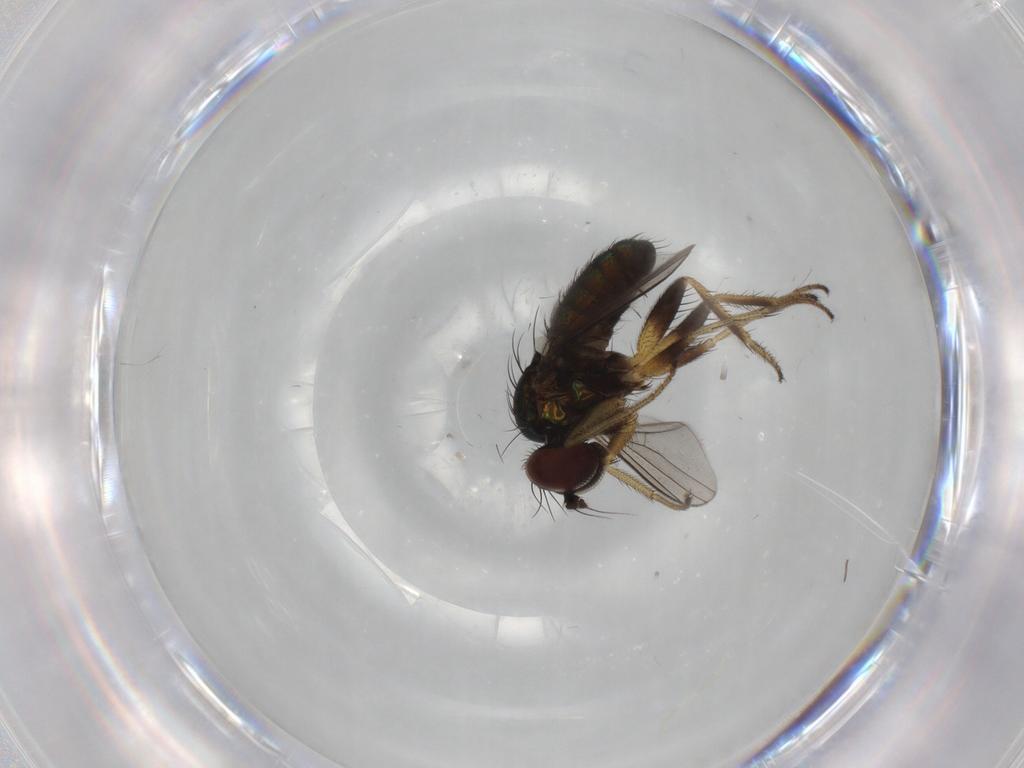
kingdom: Animalia
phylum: Arthropoda
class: Insecta
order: Diptera
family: Dolichopodidae
